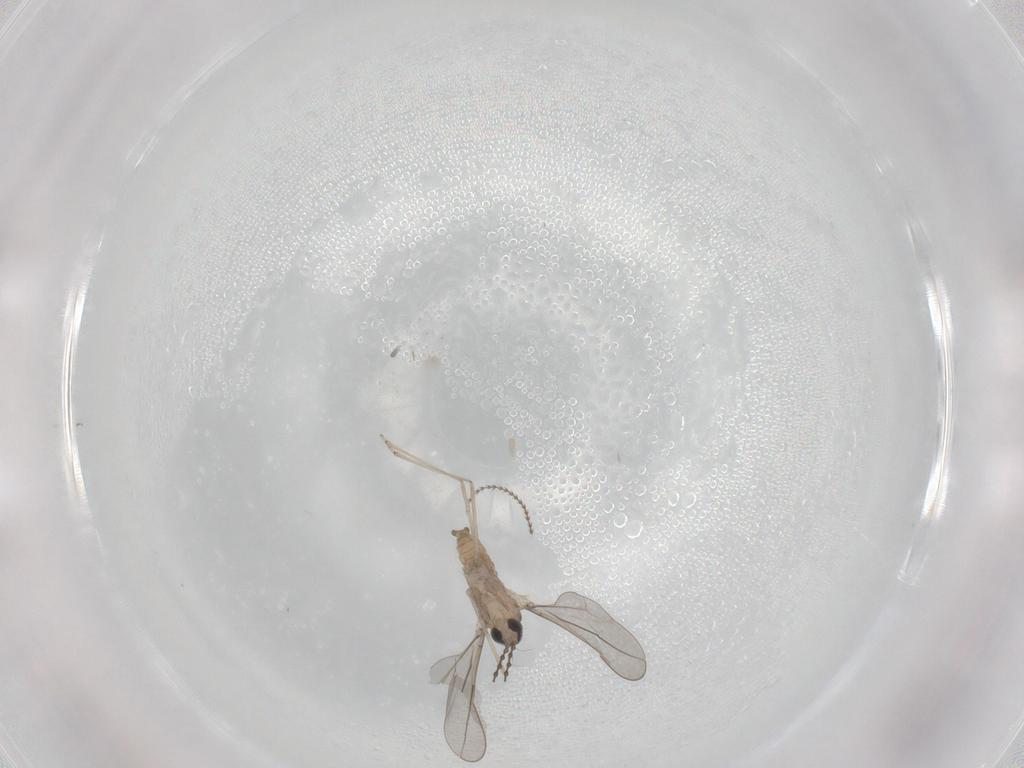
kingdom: Animalia
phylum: Arthropoda
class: Insecta
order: Diptera
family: Cecidomyiidae
